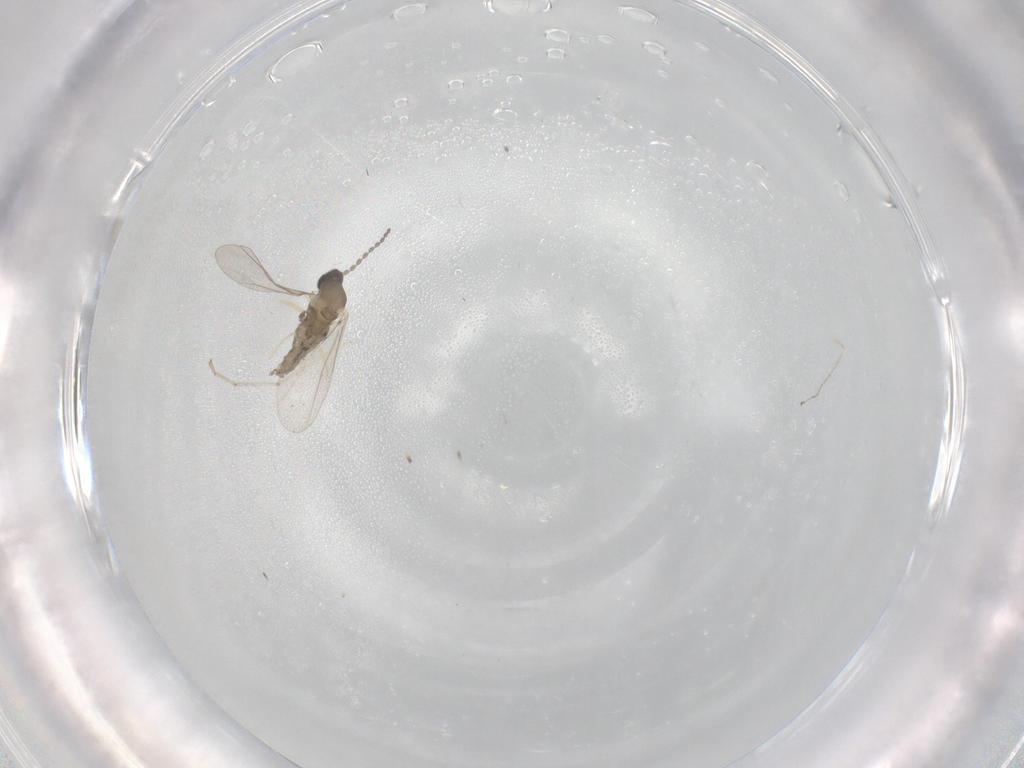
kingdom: Animalia
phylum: Arthropoda
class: Insecta
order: Diptera
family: Cecidomyiidae
